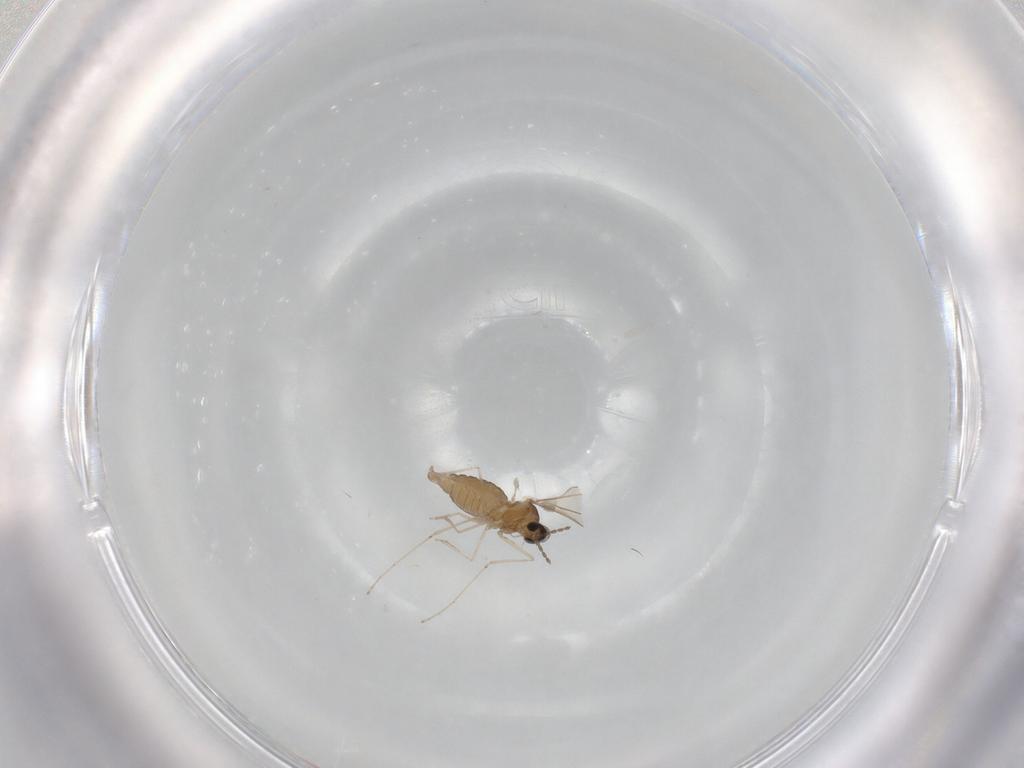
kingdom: Animalia
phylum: Arthropoda
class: Insecta
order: Diptera
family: Cecidomyiidae
